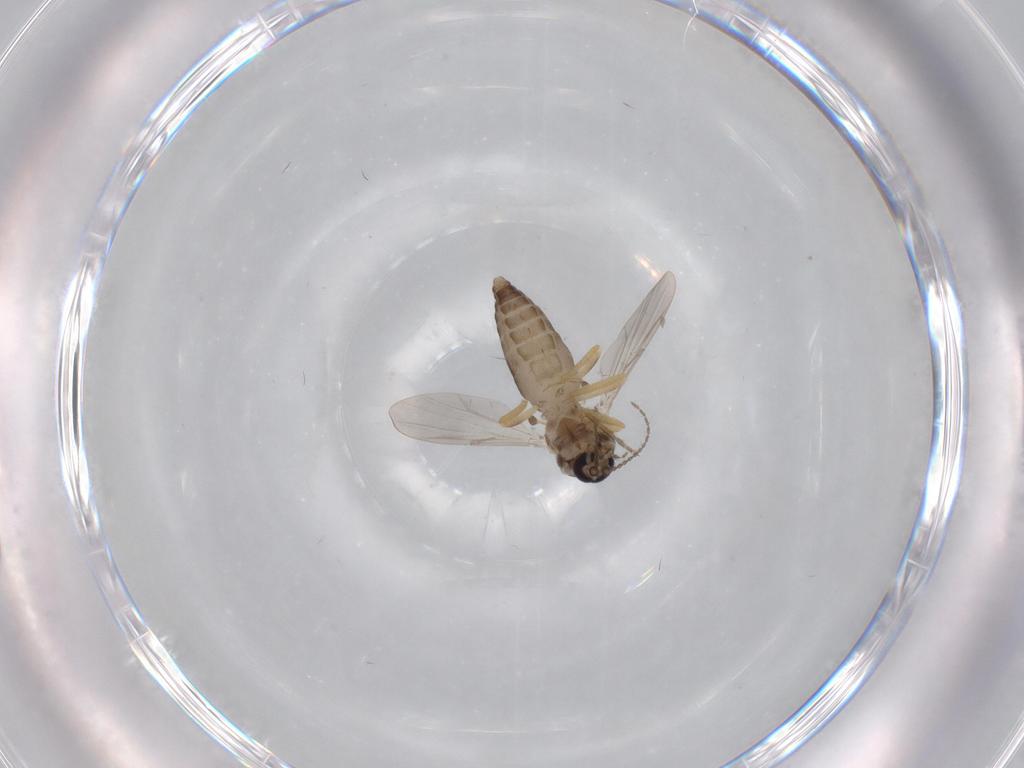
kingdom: Animalia
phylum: Arthropoda
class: Insecta
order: Diptera
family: Ceratopogonidae
